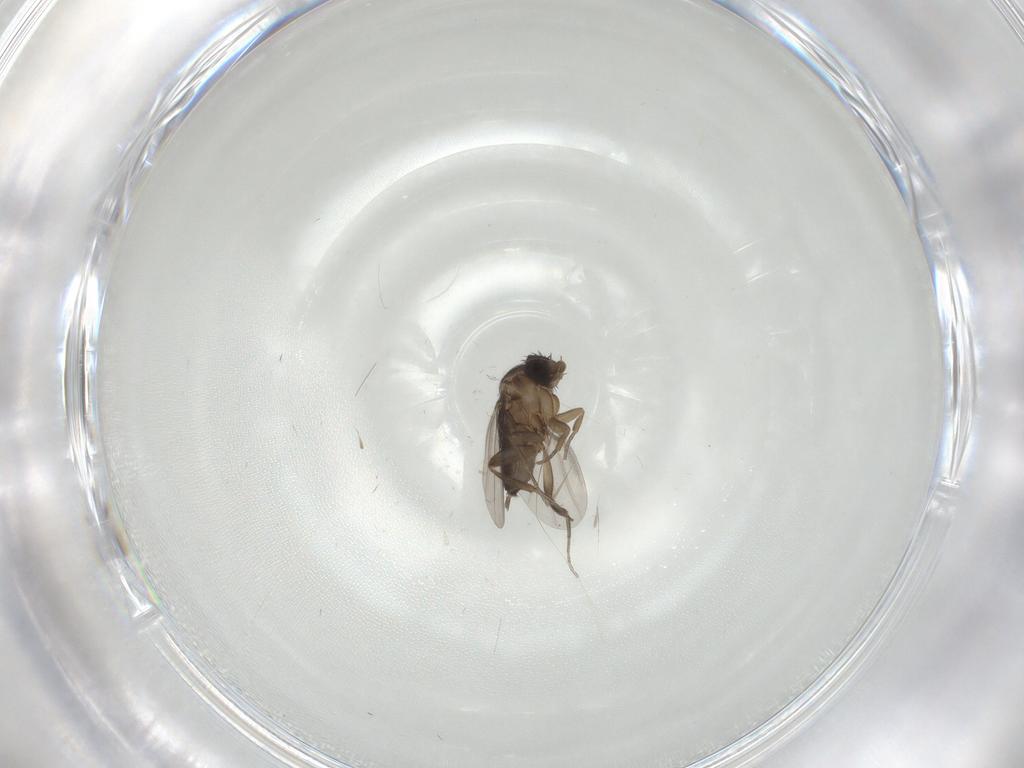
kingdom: Animalia
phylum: Arthropoda
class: Insecta
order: Diptera
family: Phoridae
